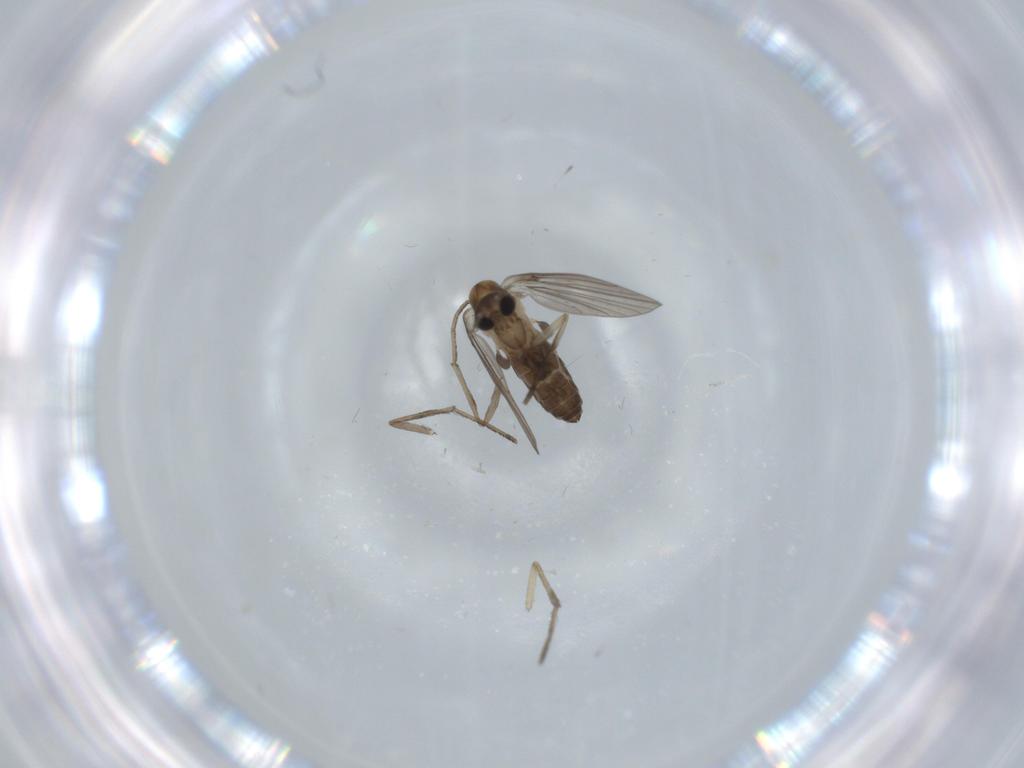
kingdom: Animalia
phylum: Arthropoda
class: Insecta
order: Diptera
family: Psychodidae
